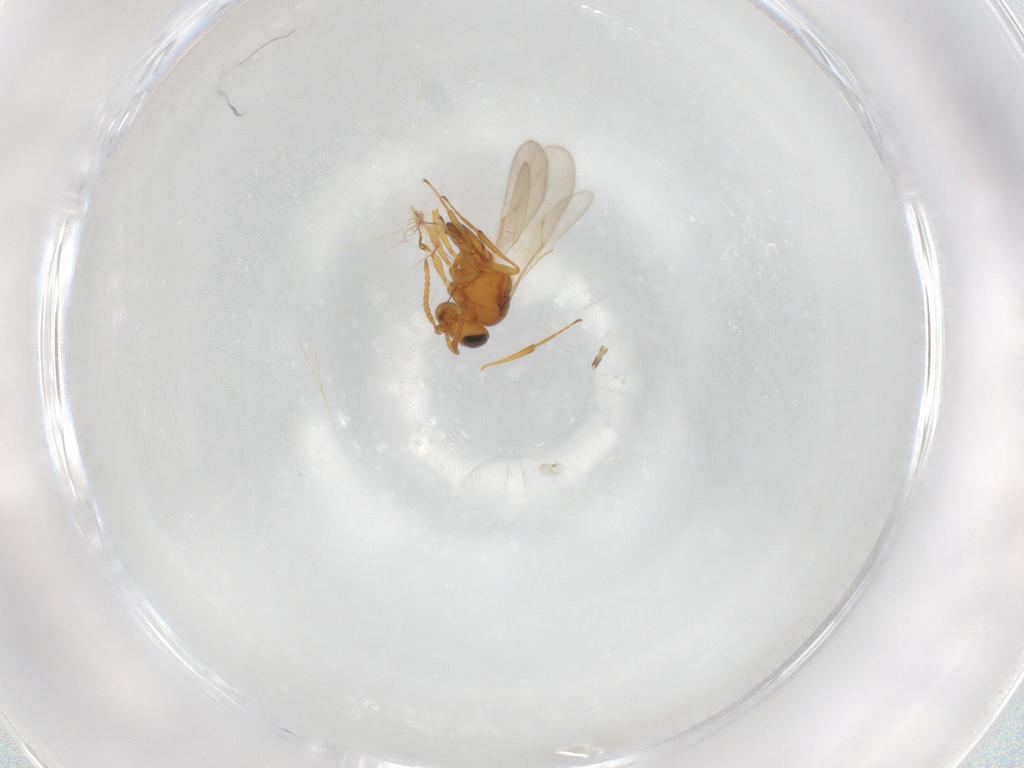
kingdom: Animalia
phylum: Arthropoda
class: Insecta
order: Hymenoptera
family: Scelionidae
